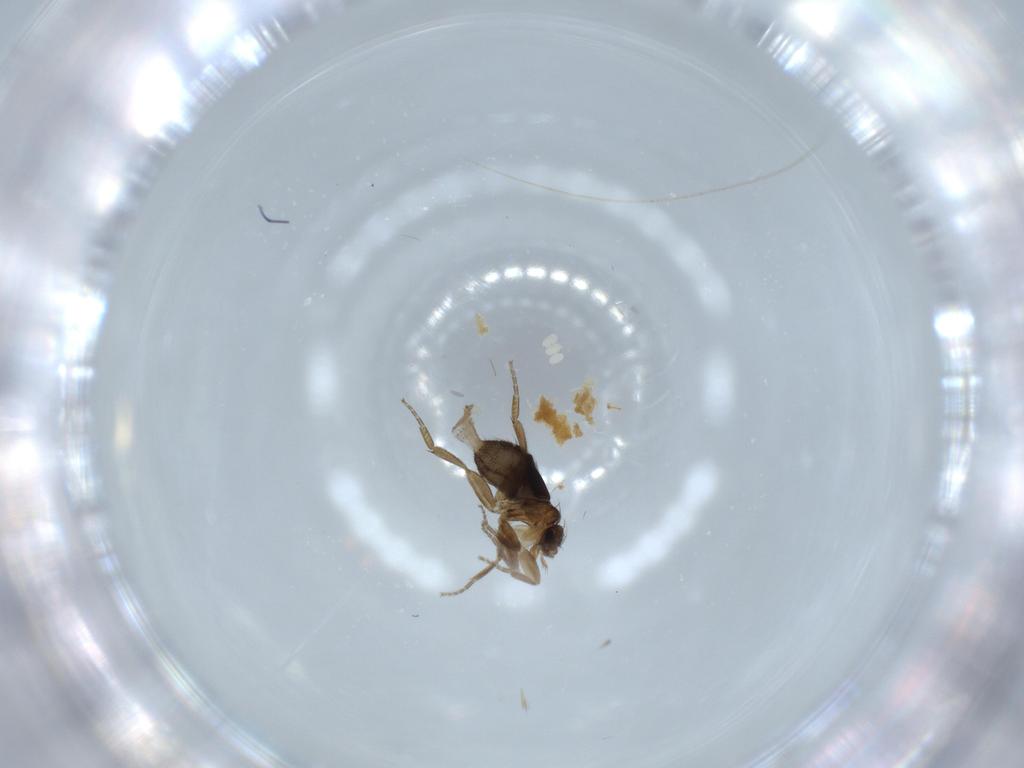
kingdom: Animalia
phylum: Arthropoda
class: Insecta
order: Diptera
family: Phoridae
